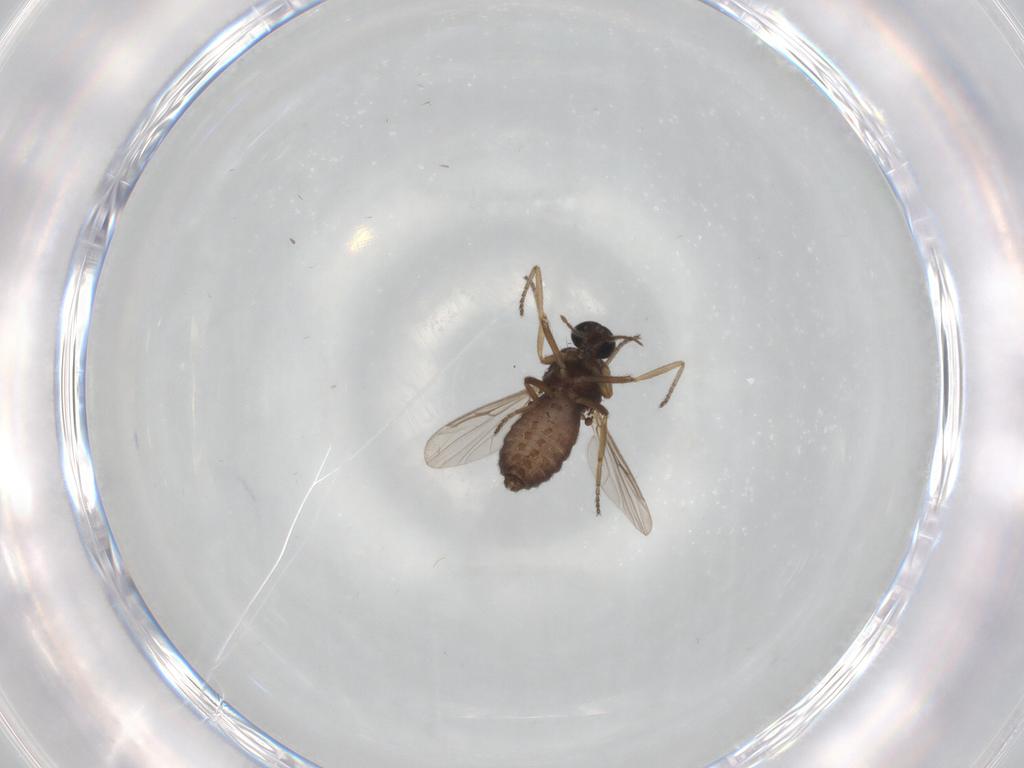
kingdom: Animalia
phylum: Arthropoda
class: Insecta
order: Diptera
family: Ceratopogonidae
